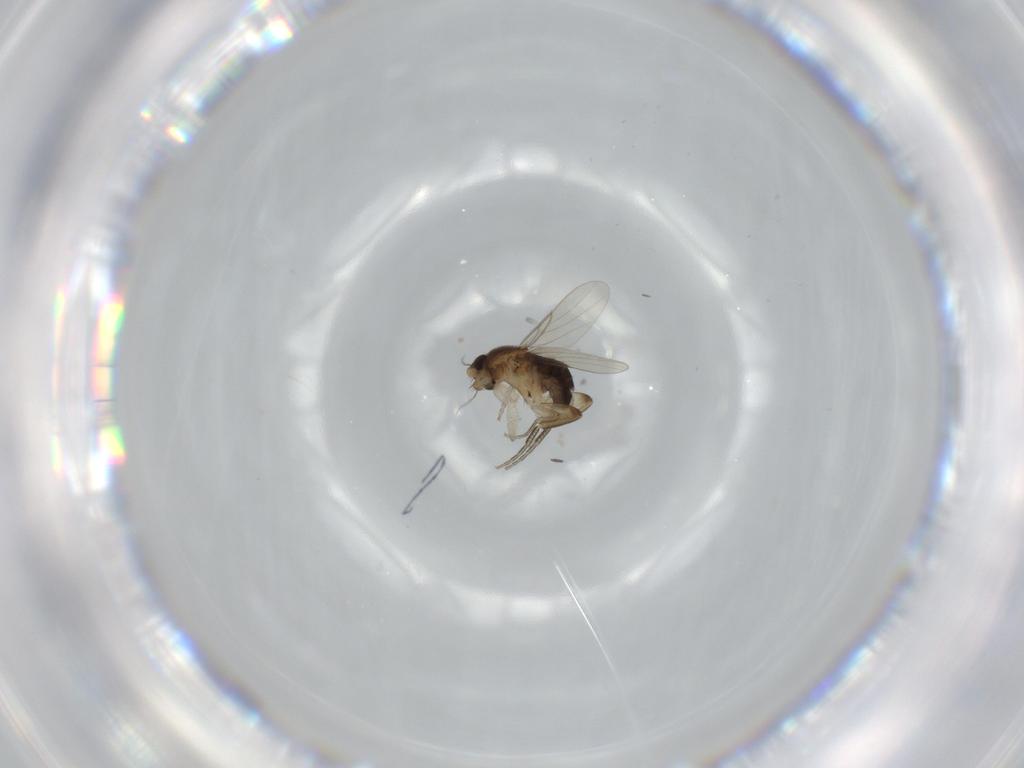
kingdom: Animalia
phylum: Arthropoda
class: Insecta
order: Diptera
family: Phoridae
